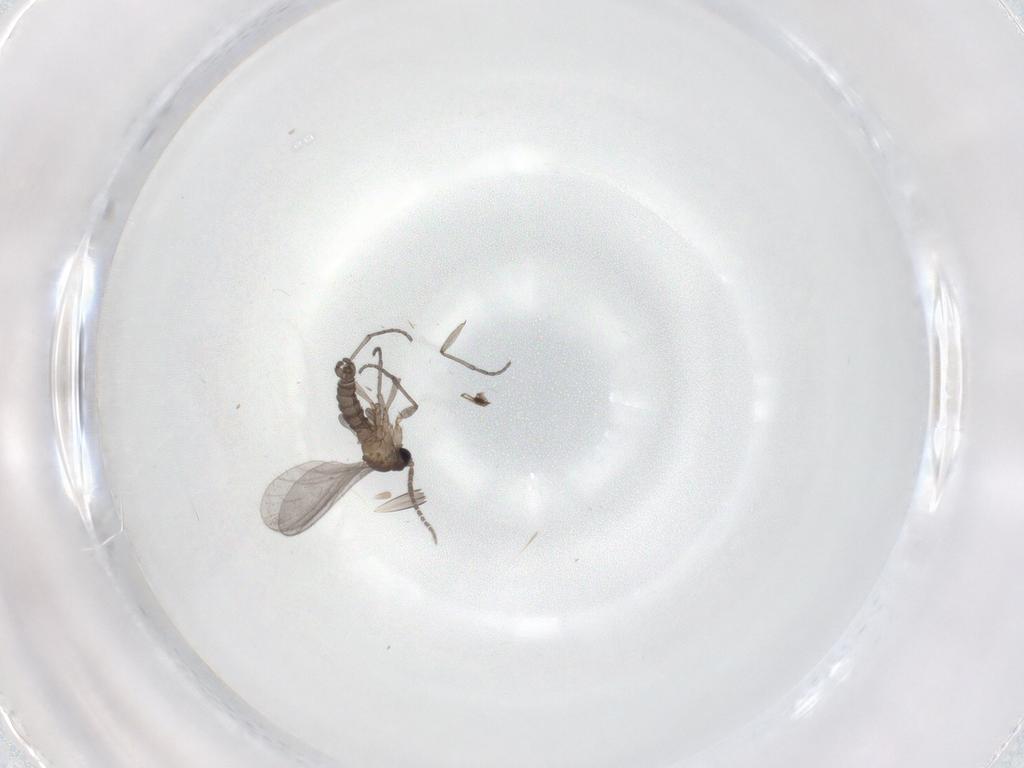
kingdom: Animalia
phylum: Arthropoda
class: Insecta
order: Diptera
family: Sciaridae
